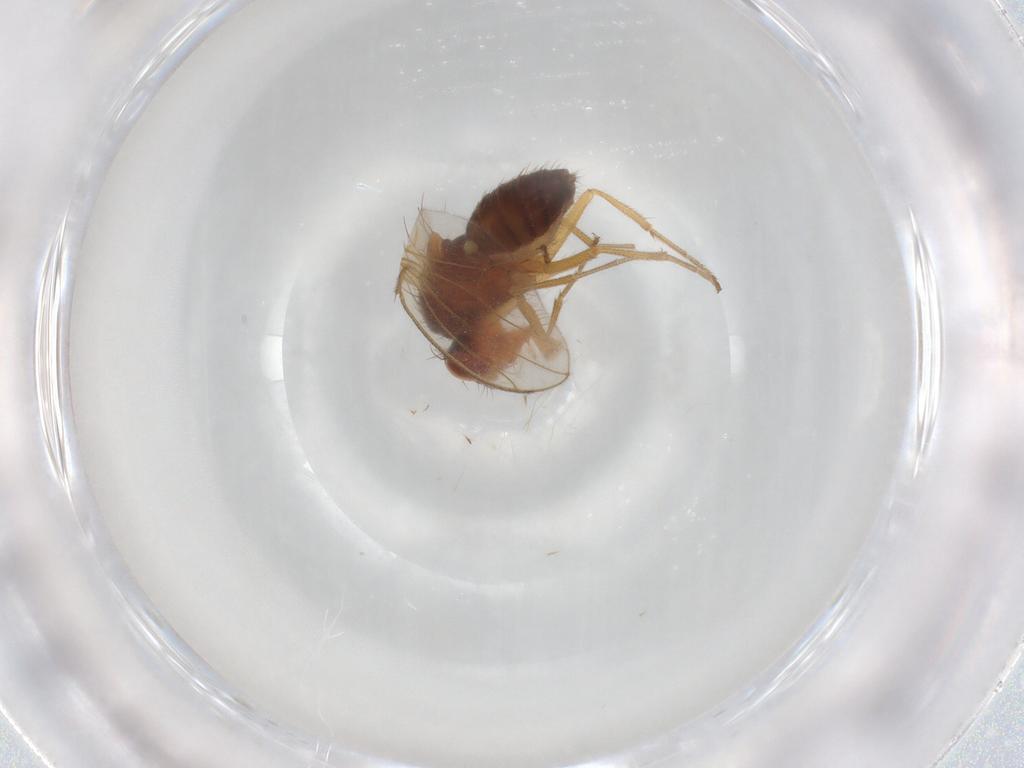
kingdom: Animalia
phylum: Arthropoda
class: Insecta
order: Diptera
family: Drosophilidae
